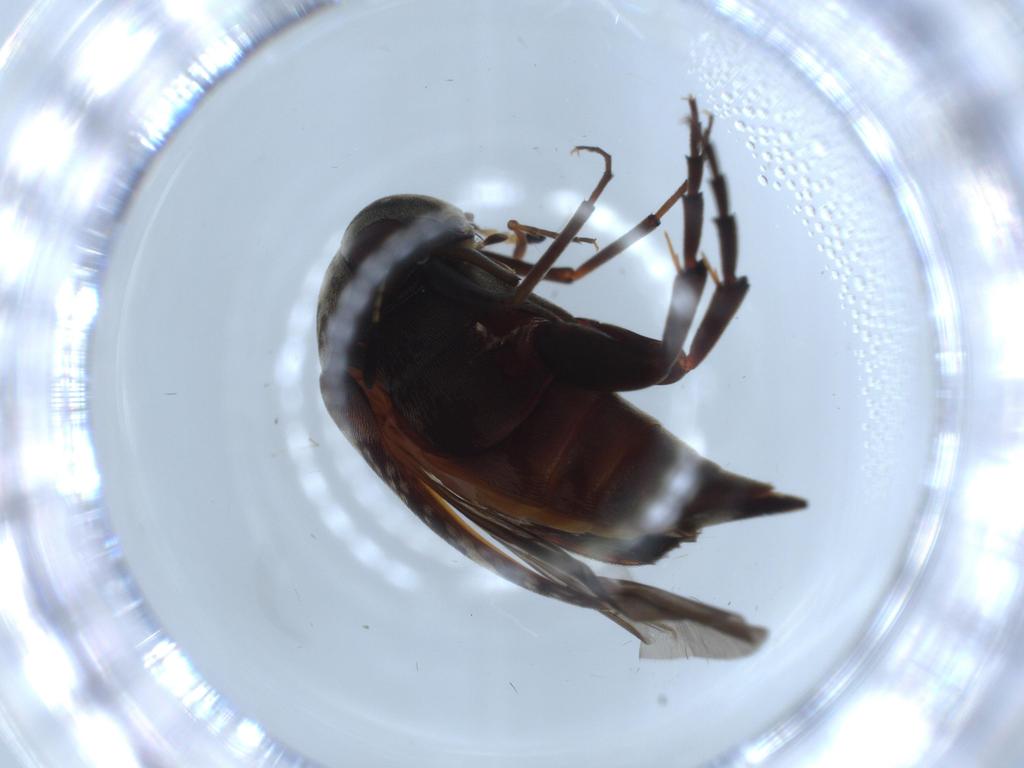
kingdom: Animalia
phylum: Arthropoda
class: Insecta
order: Coleoptera
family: Elateridae
